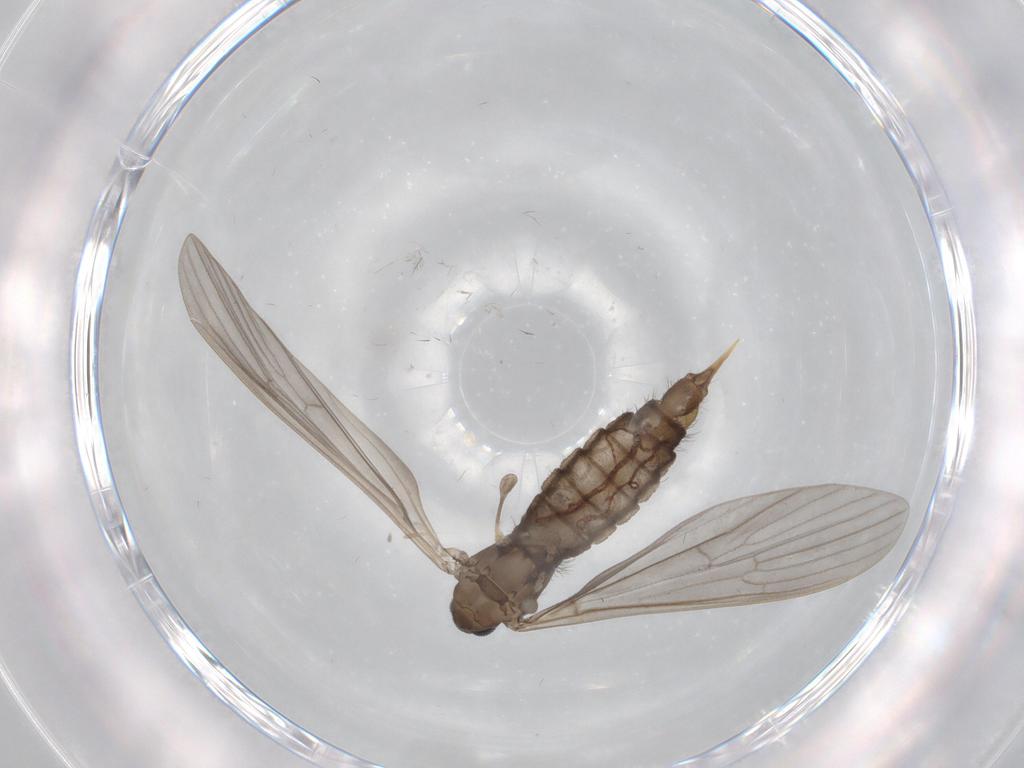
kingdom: Animalia
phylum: Arthropoda
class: Insecta
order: Diptera
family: Limoniidae
